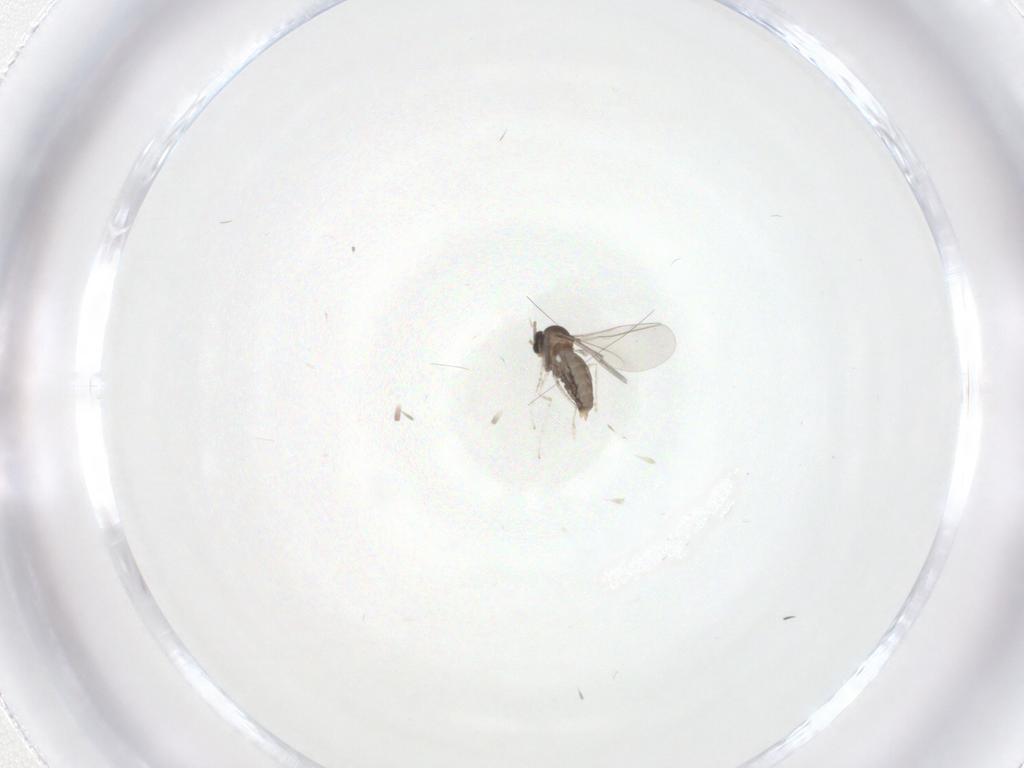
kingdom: Animalia
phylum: Arthropoda
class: Insecta
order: Diptera
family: Cecidomyiidae
